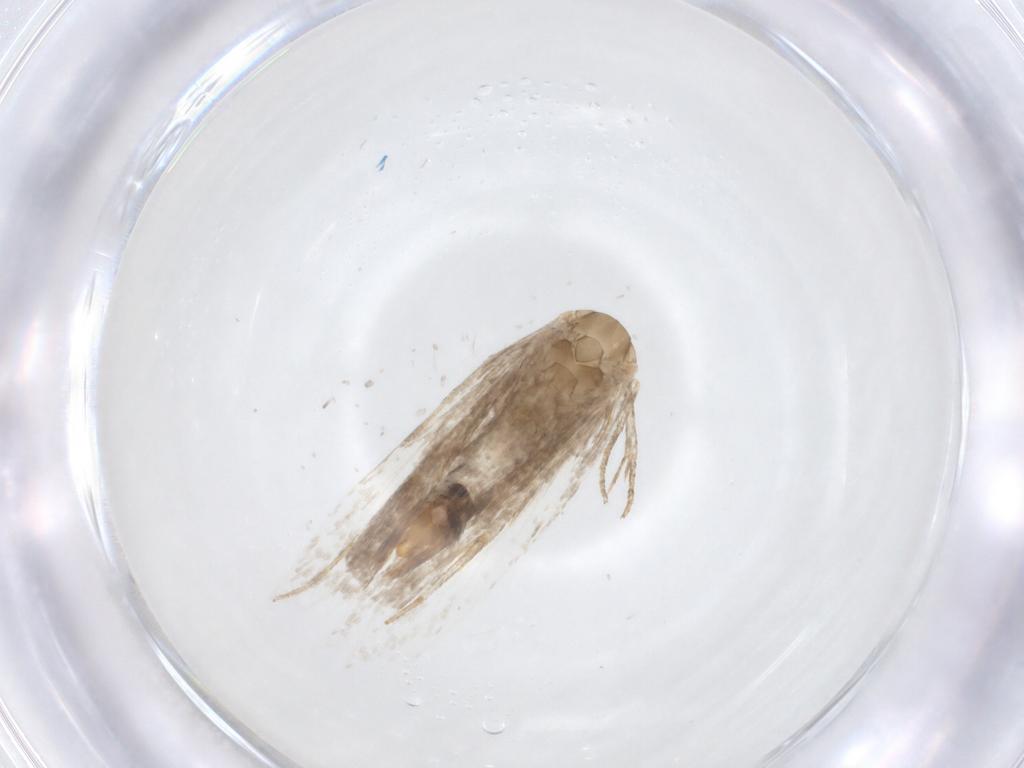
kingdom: Animalia
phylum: Arthropoda
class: Insecta
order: Lepidoptera
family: Gelechiidae
